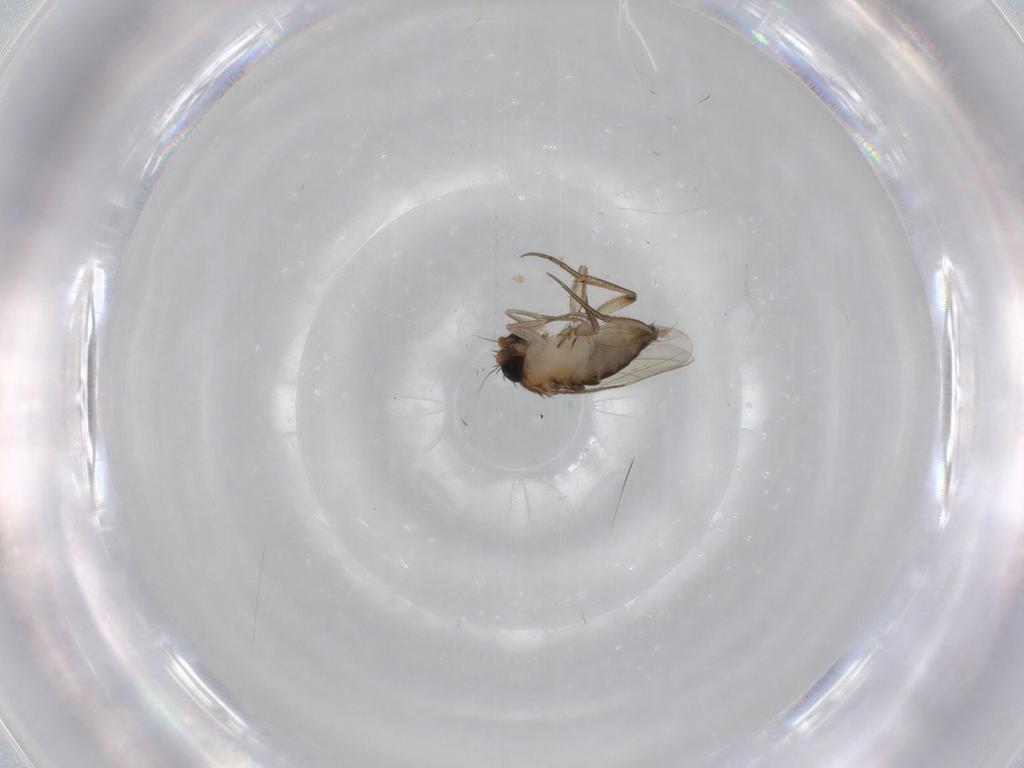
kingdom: Animalia
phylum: Arthropoda
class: Insecta
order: Diptera
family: Phoridae
